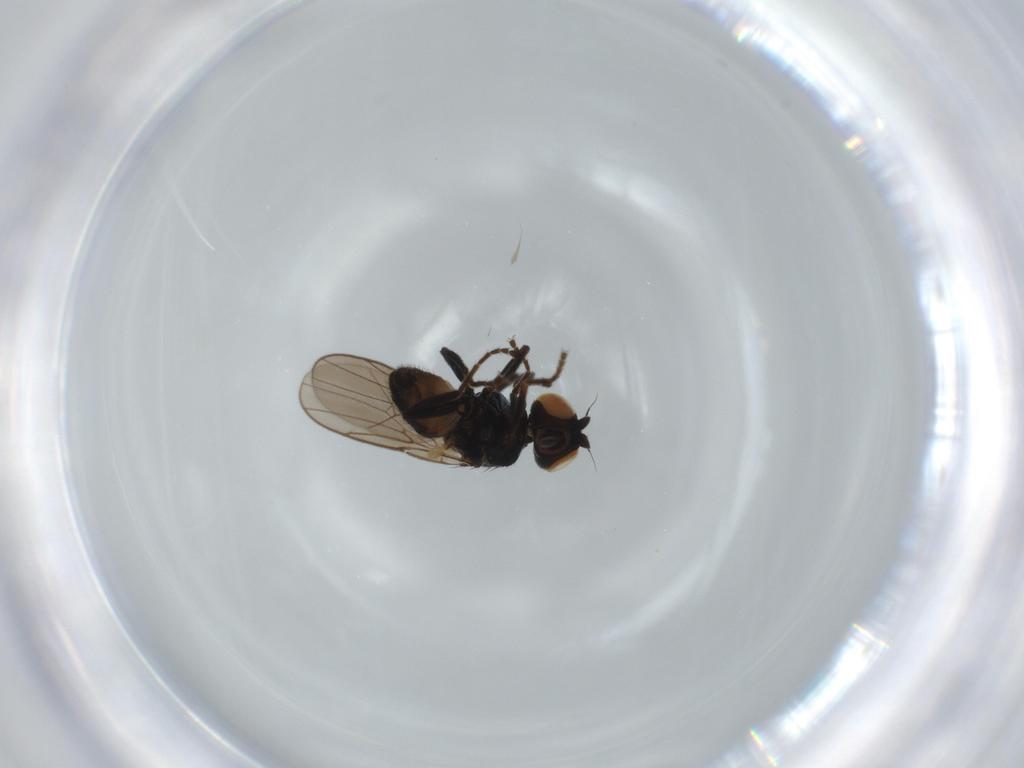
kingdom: Animalia
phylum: Arthropoda
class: Insecta
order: Diptera
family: Chloropidae
